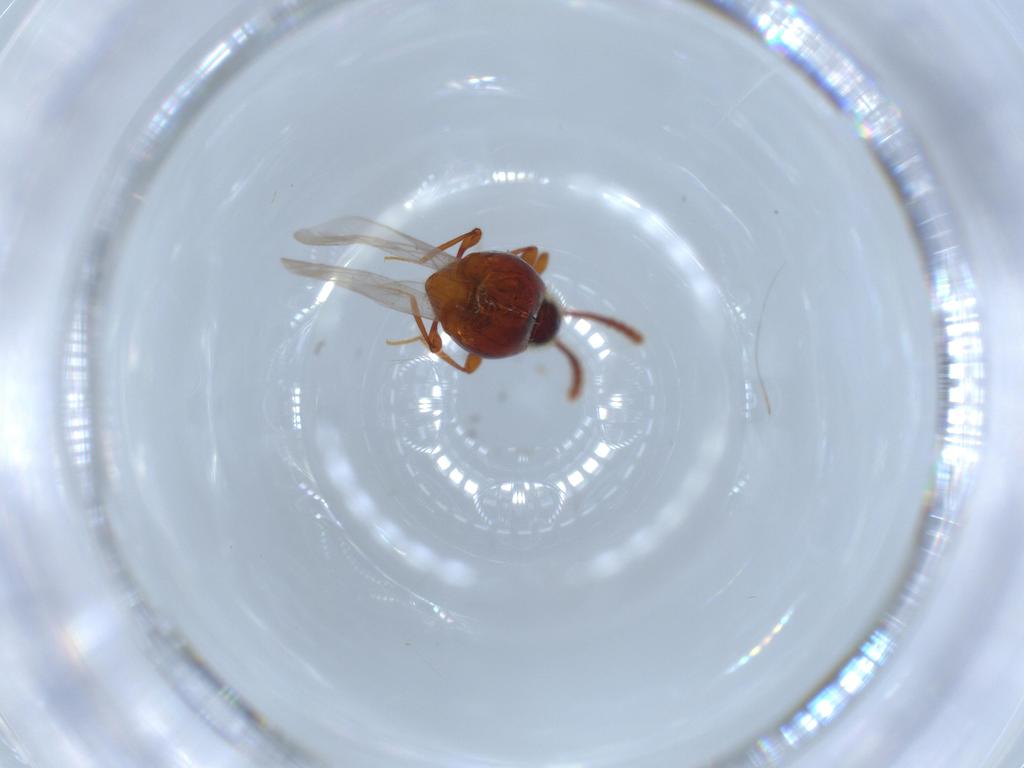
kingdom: Animalia
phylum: Arthropoda
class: Insecta
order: Coleoptera
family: Staphylinidae
